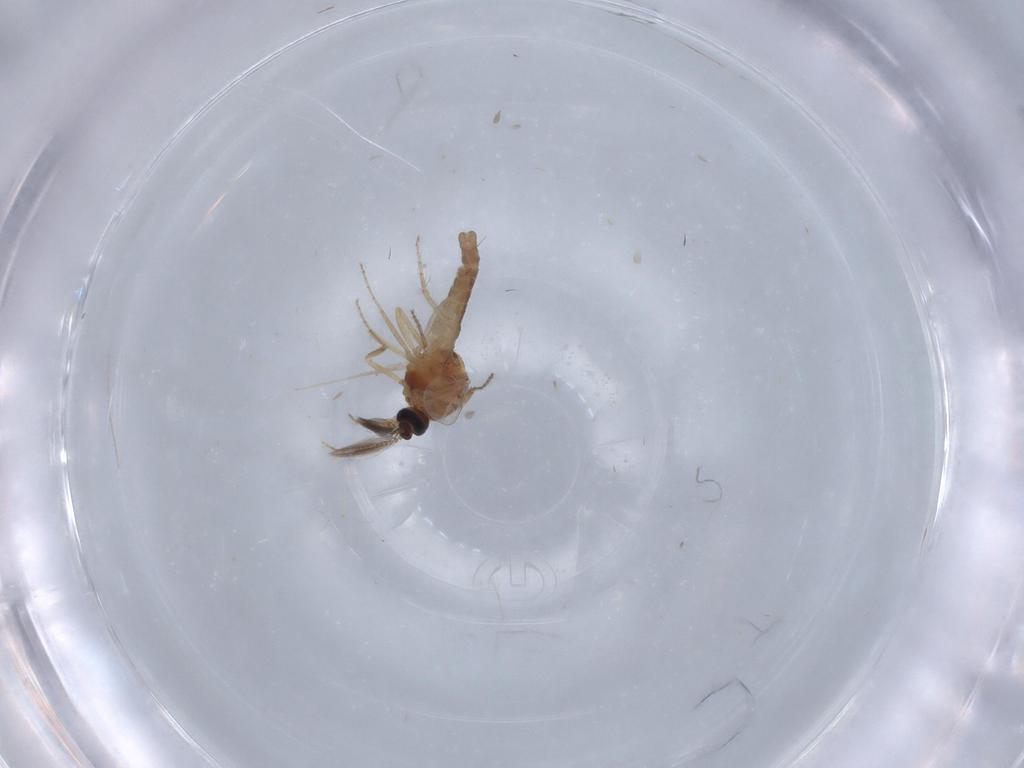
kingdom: Animalia
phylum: Arthropoda
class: Insecta
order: Diptera
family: Ceratopogonidae
